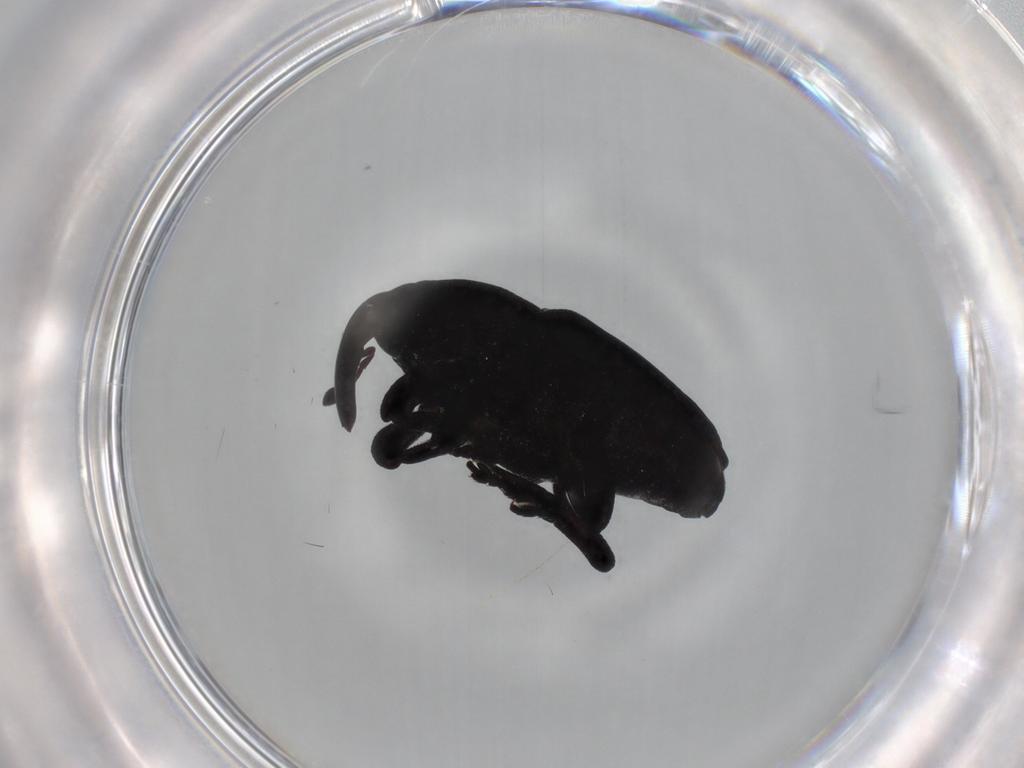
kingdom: Animalia
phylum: Arthropoda
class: Insecta
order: Coleoptera
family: Curculionidae
